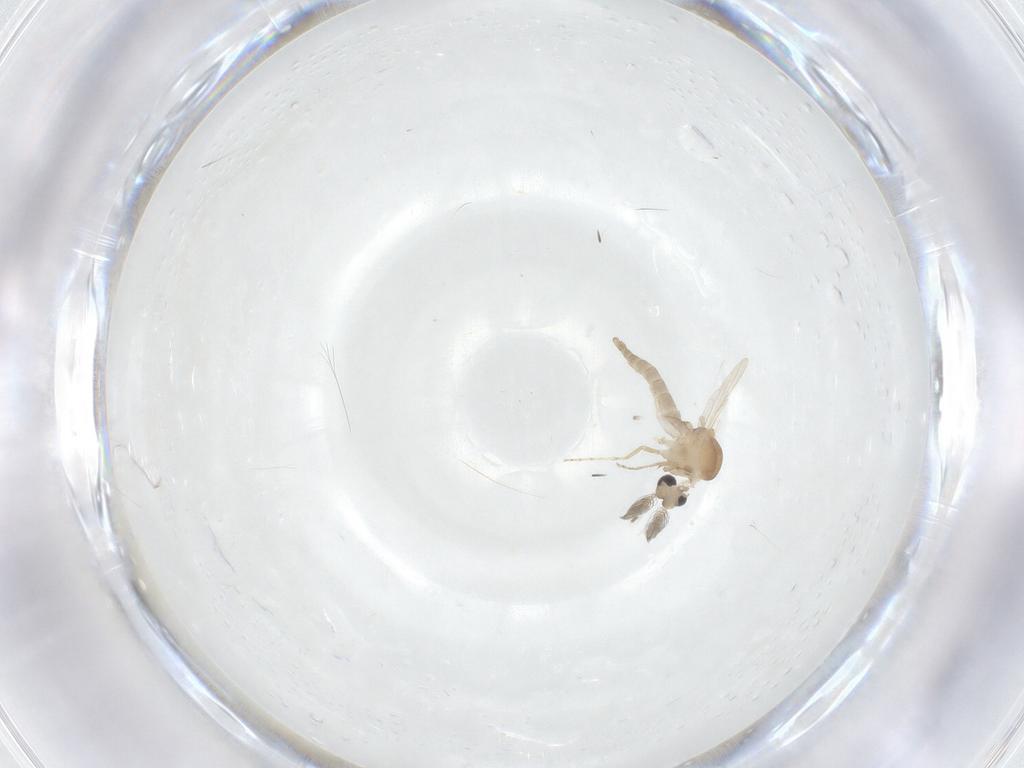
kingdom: Animalia
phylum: Arthropoda
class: Insecta
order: Diptera
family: Ceratopogonidae
